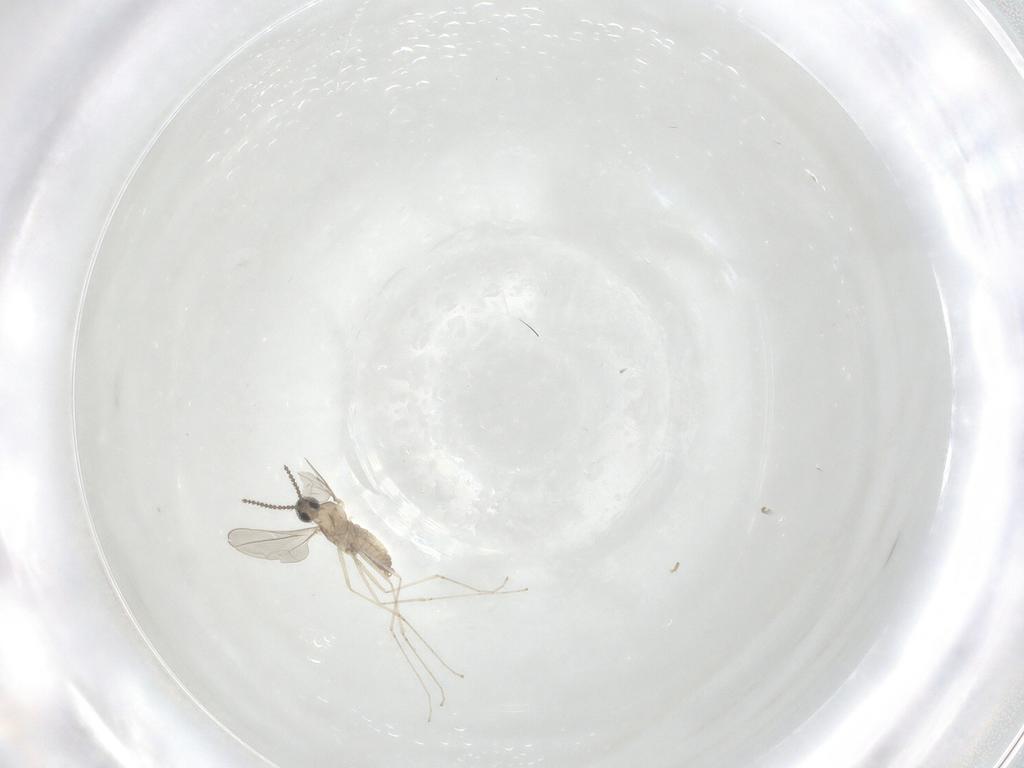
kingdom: Animalia
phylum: Arthropoda
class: Insecta
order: Diptera
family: Cecidomyiidae
